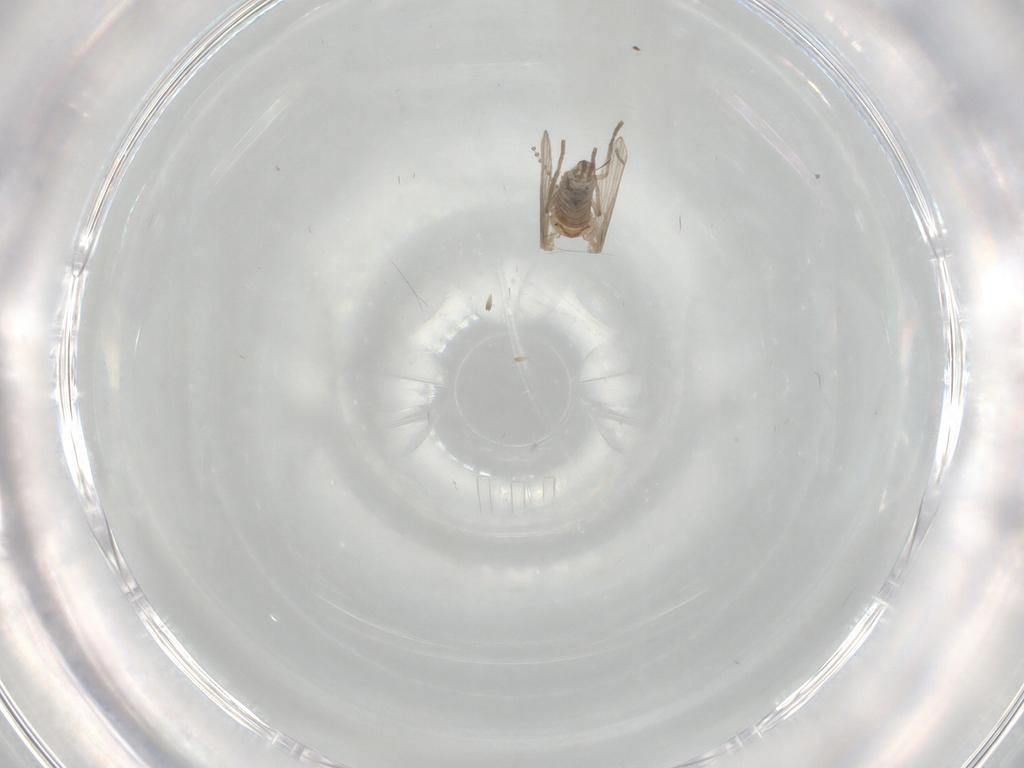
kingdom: Animalia
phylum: Arthropoda
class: Insecta
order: Diptera
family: Psychodidae
